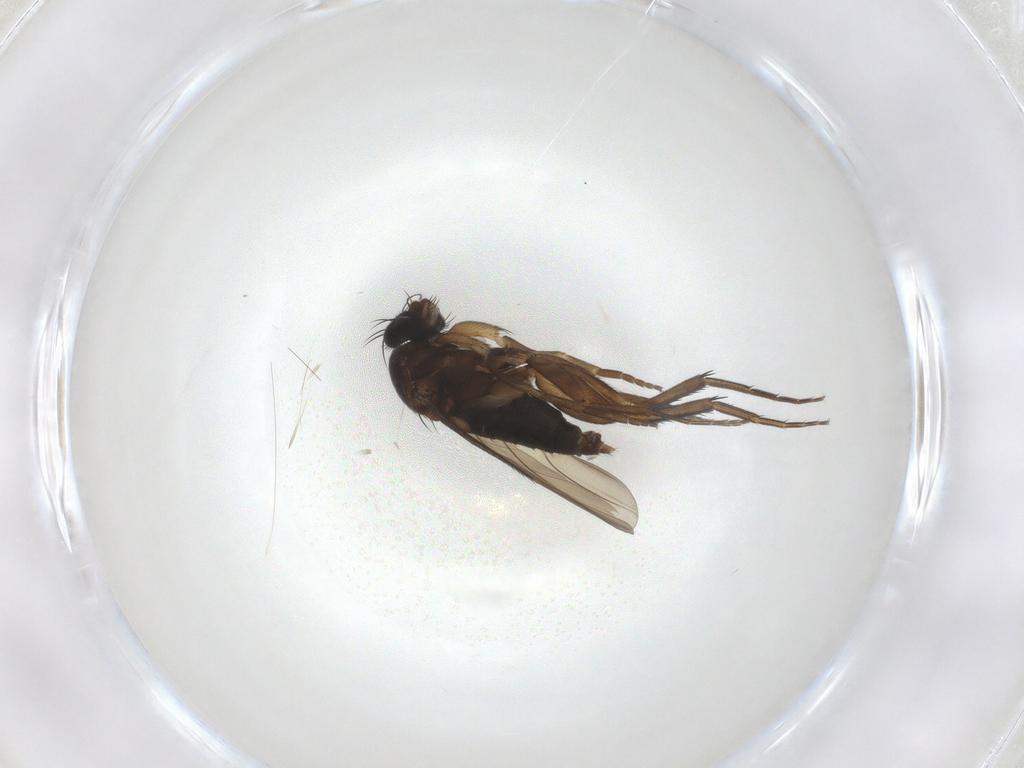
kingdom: Animalia
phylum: Arthropoda
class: Insecta
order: Diptera
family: Phoridae
